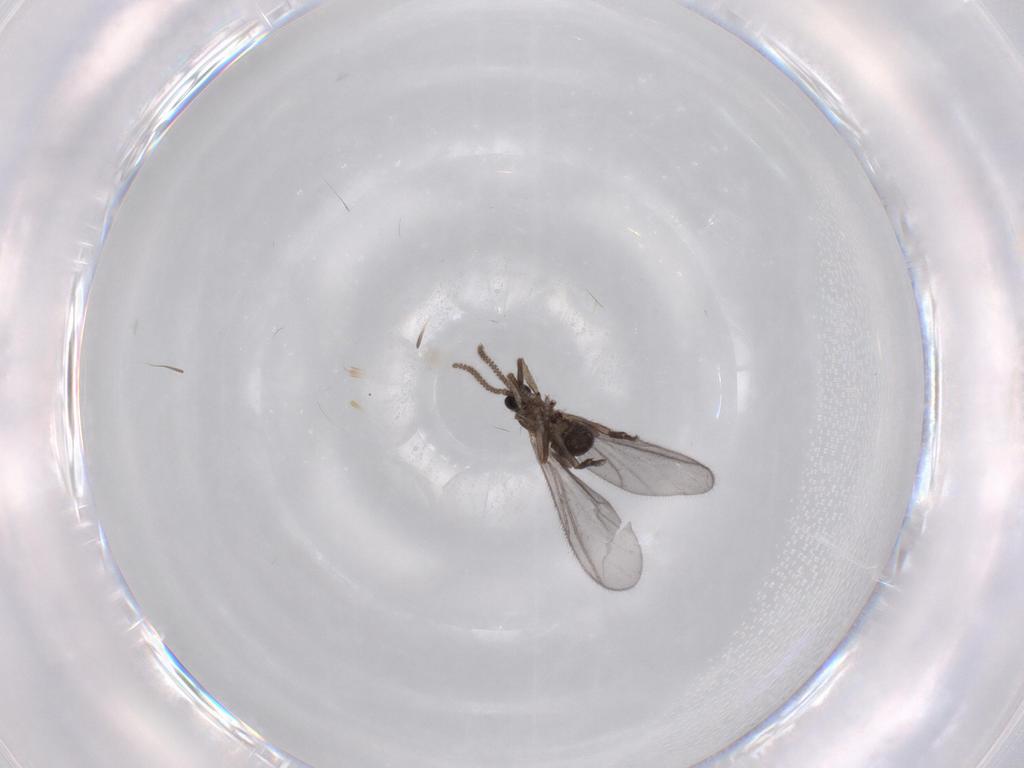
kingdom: Animalia
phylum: Arthropoda
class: Insecta
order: Diptera
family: Sciaridae
